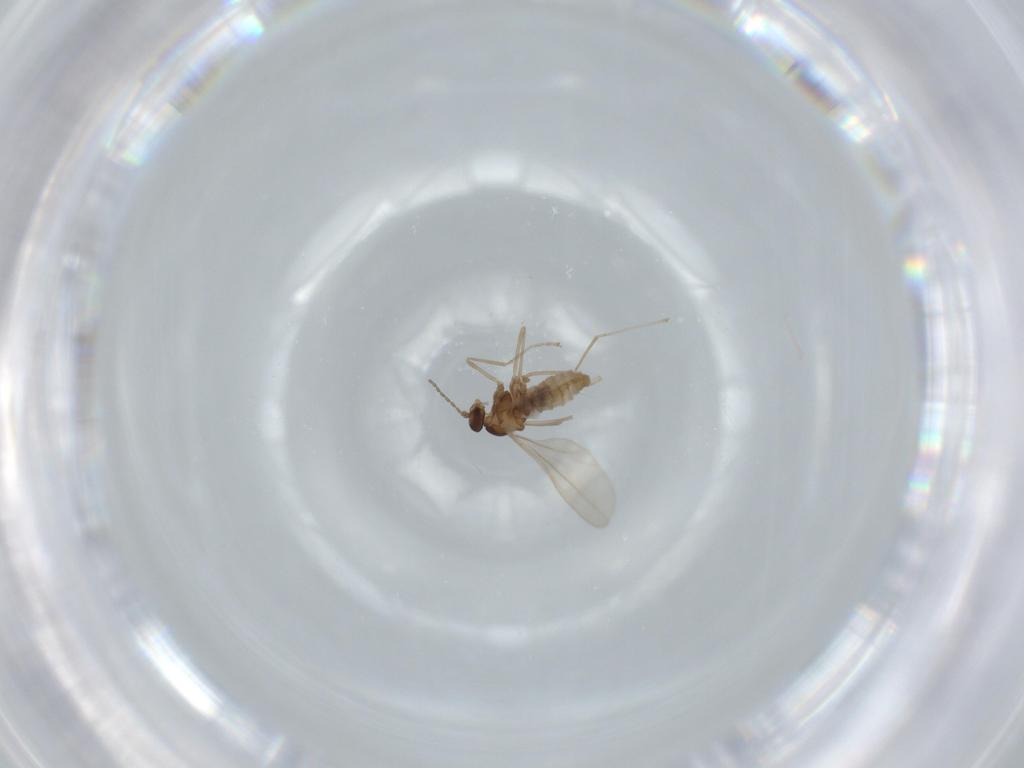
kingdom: Animalia
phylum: Arthropoda
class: Insecta
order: Diptera
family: Cecidomyiidae
